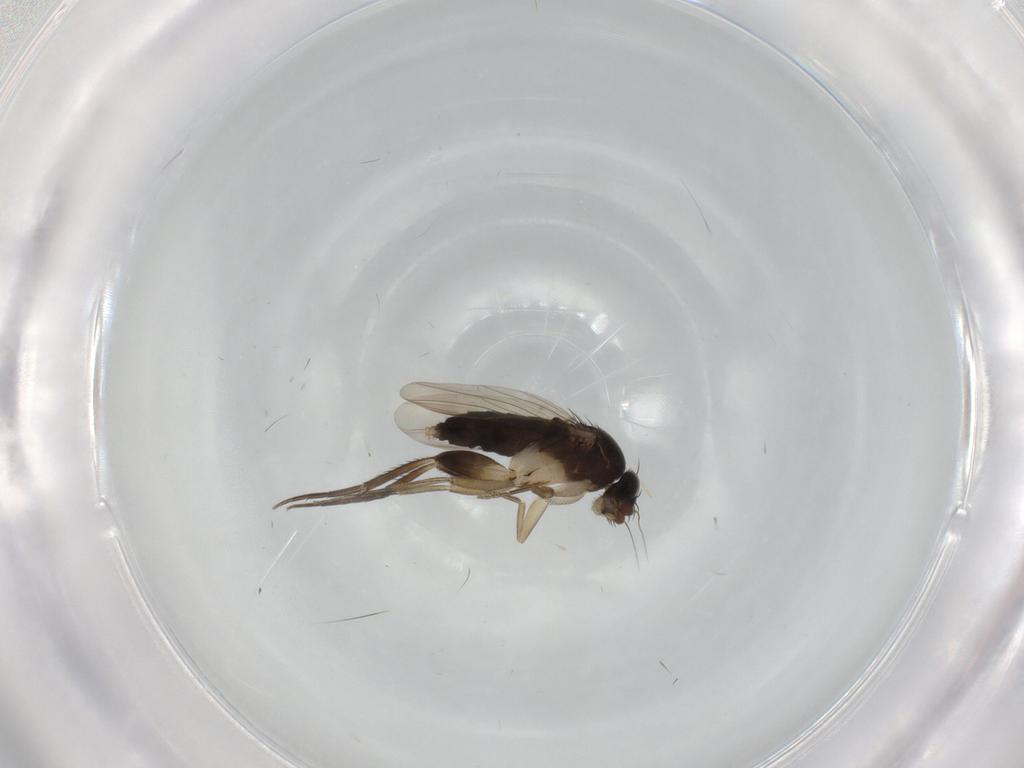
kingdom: Animalia
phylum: Arthropoda
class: Insecta
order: Diptera
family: Phoridae
